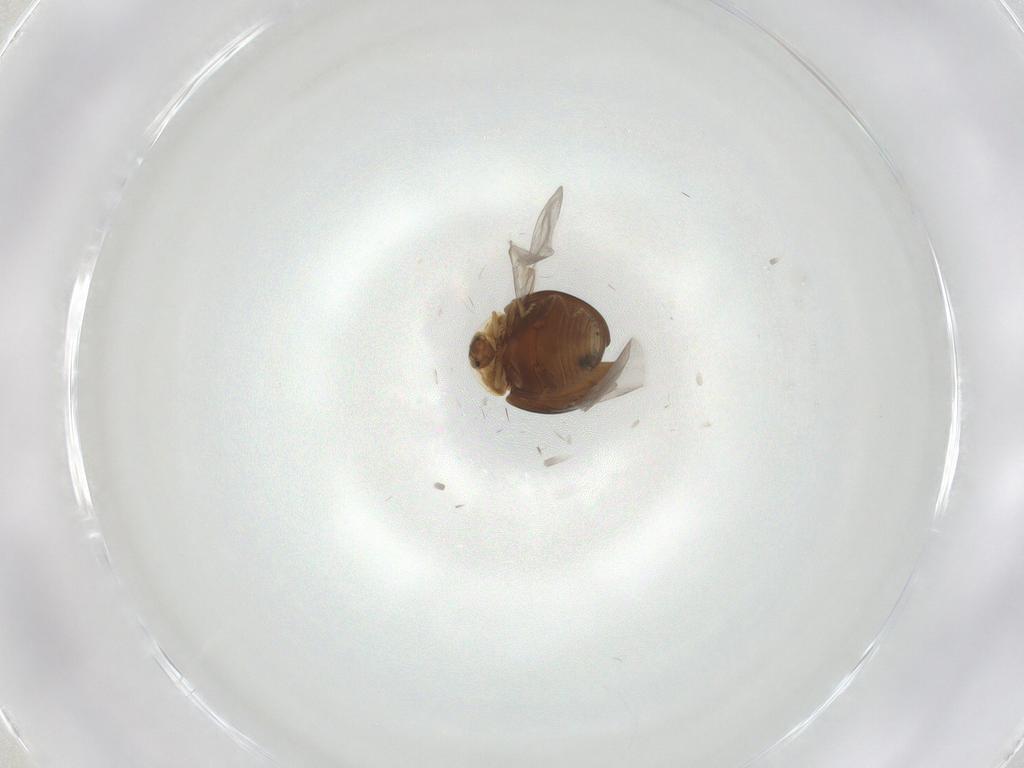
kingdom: Animalia
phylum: Arthropoda
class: Insecta
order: Coleoptera
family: Corylophidae
